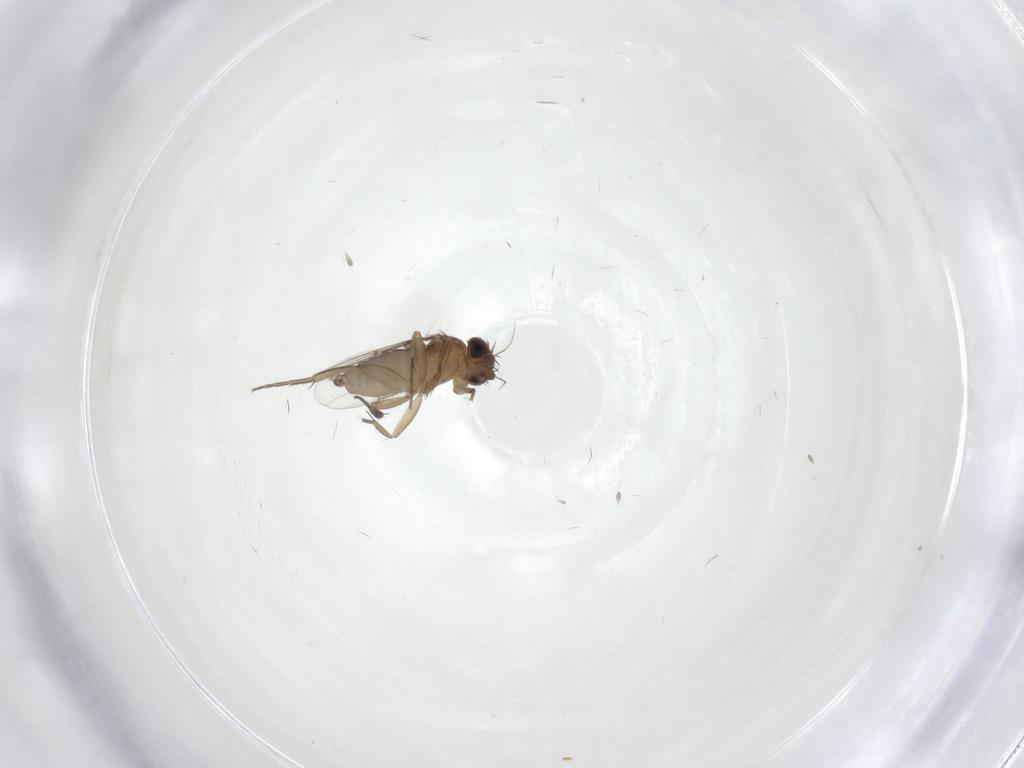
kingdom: Animalia
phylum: Arthropoda
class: Insecta
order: Diptera
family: Phoridae
